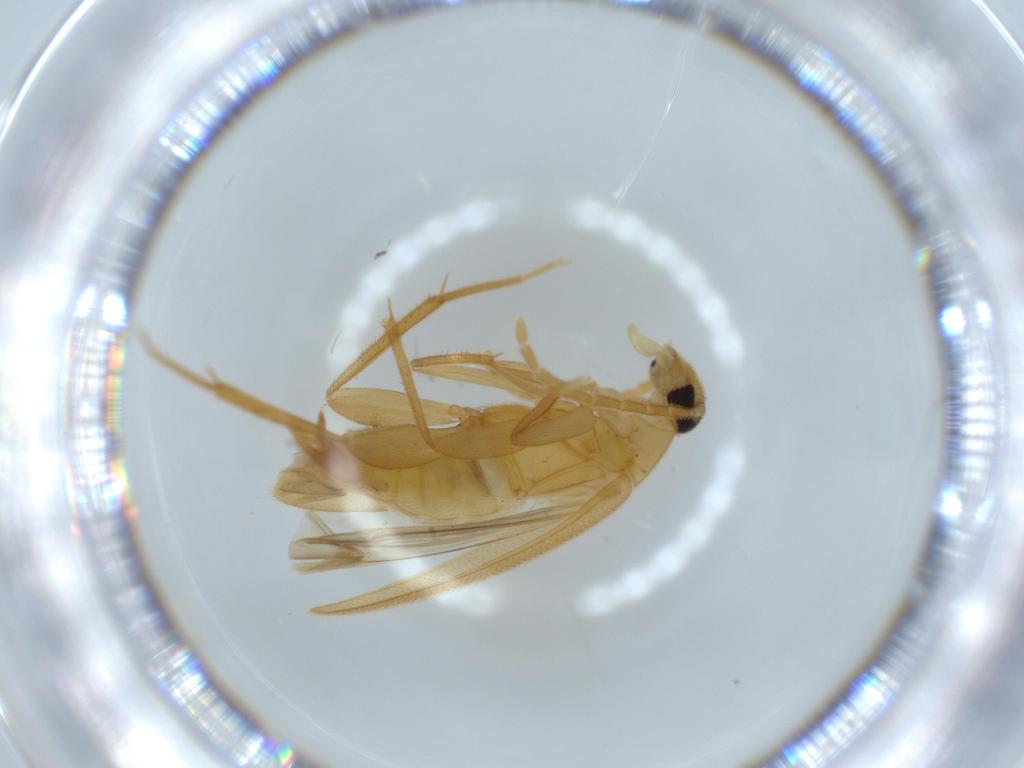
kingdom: Animalia
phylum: Arthropoda
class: Insecta
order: Coleoptera
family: Scraptiidae
